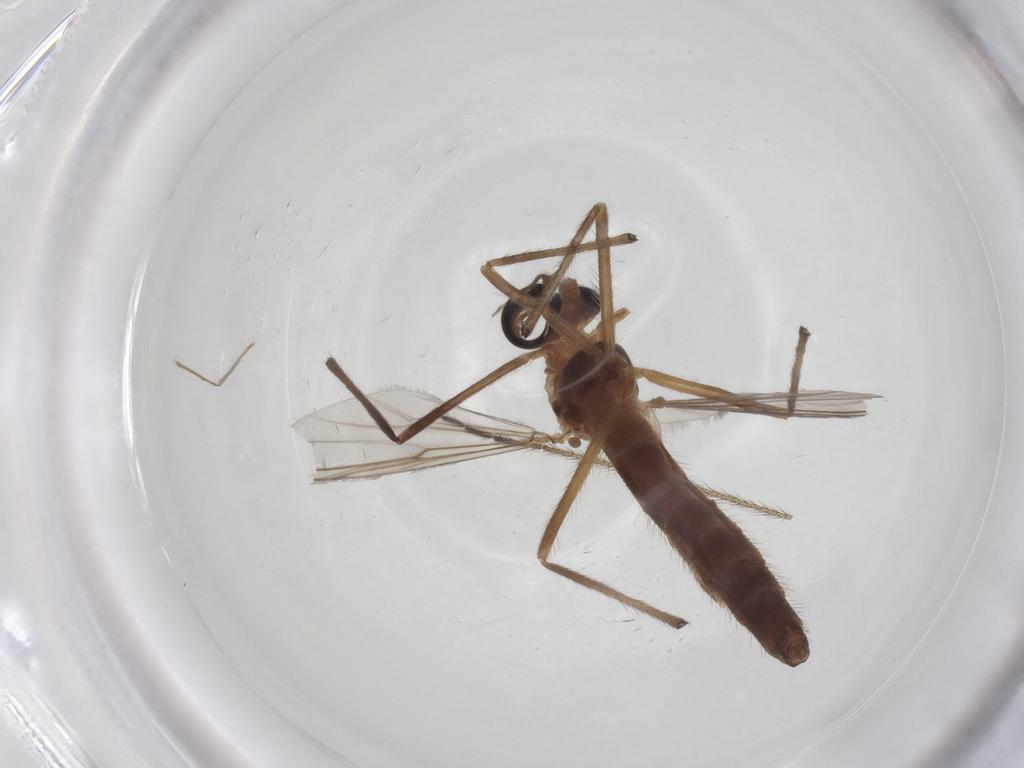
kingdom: Animalia
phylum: Arthropoda
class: Insecta
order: Diptera
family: Chironomidae
